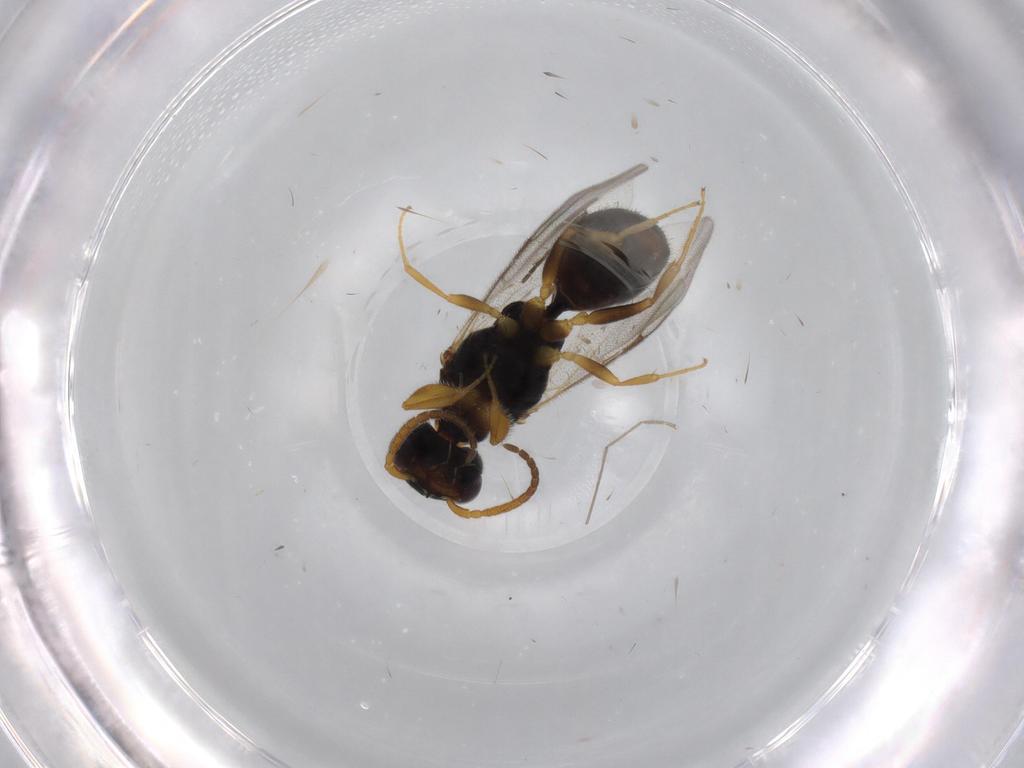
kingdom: Animalia
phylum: Arthropoda
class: Insecta
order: Hymenoptera
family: Bethylidae
